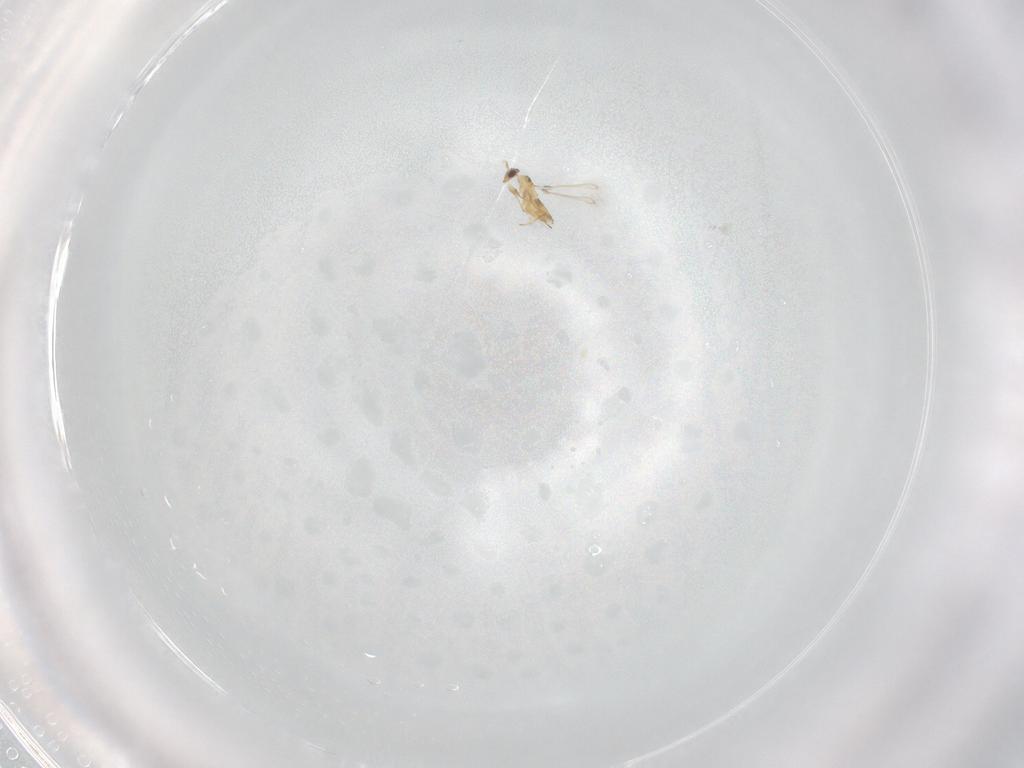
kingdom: Animalia
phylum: Arthropoda
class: Insecta
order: Hymenoptera
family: Mymaridae
